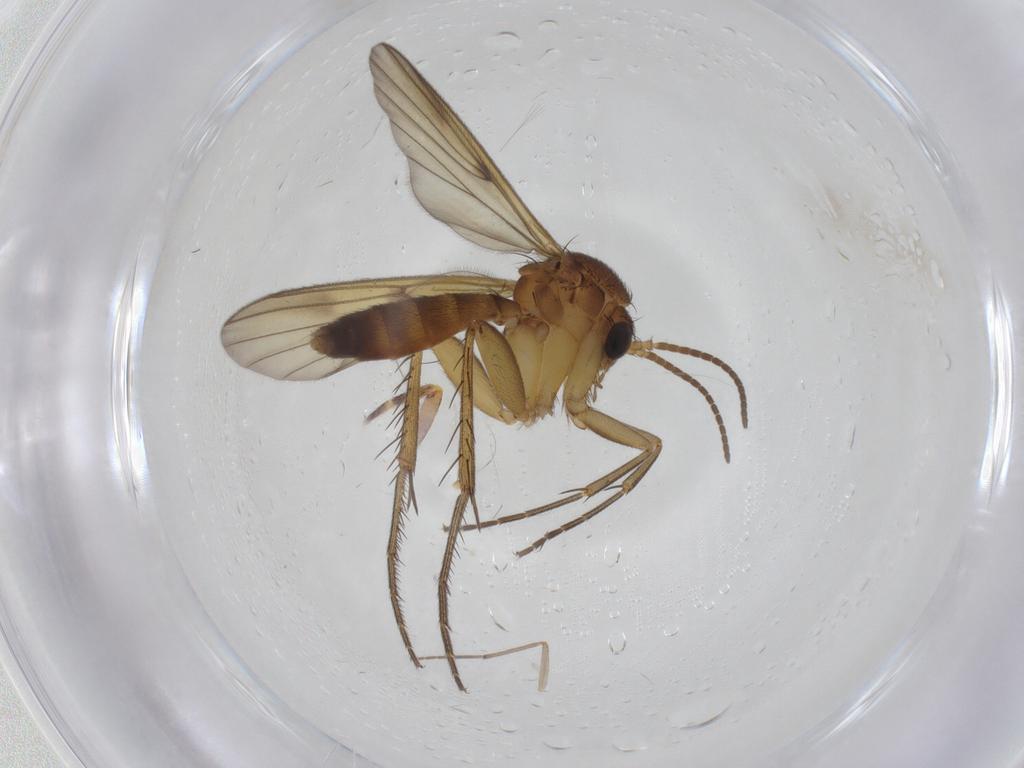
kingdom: Animalia
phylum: Arthropoda
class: Insecta
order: Diptera
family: Mycetophilidae
